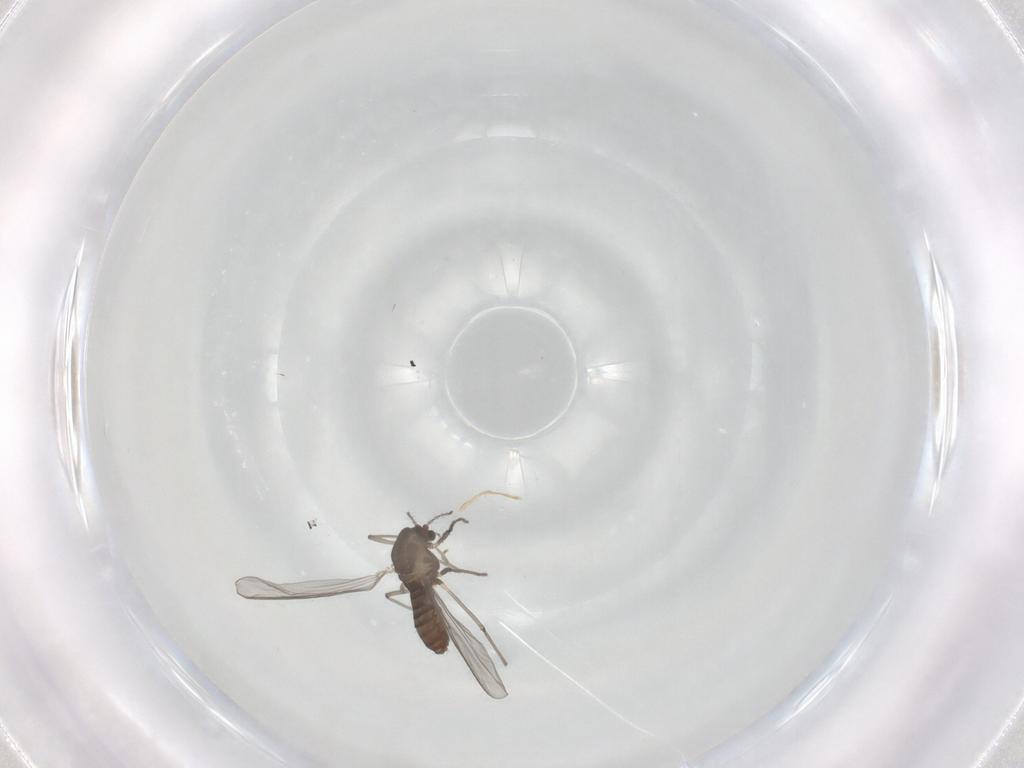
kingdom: Animalia
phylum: Arthropoda
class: Insecta
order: Diptera
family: Chironomidae
